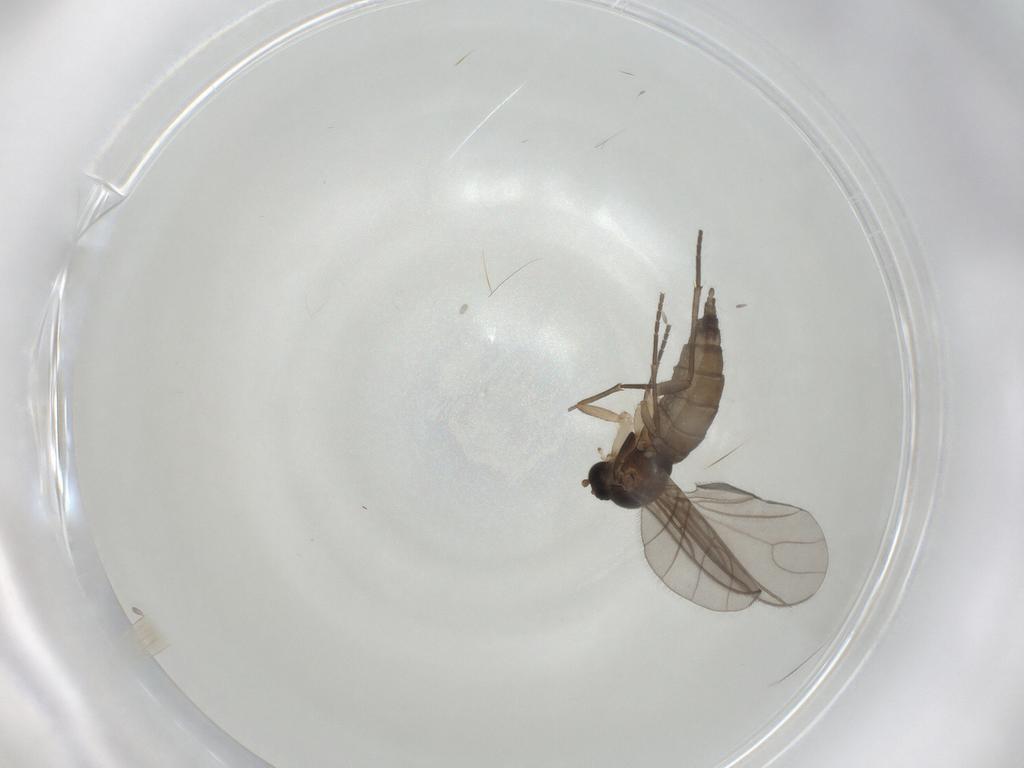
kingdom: Animalia
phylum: Arthropoda
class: Insecta
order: Diptera
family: Sciaridae
